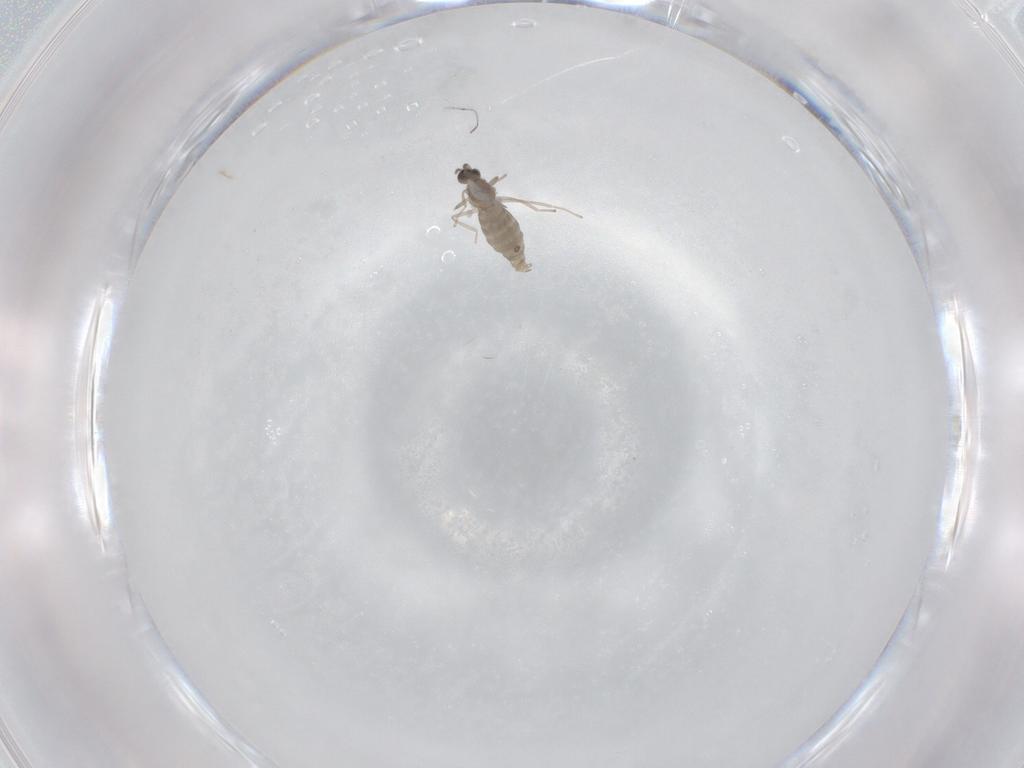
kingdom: Animalia
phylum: Arthropoda
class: Insecta
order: Diptera
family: Cecidomyiidae
